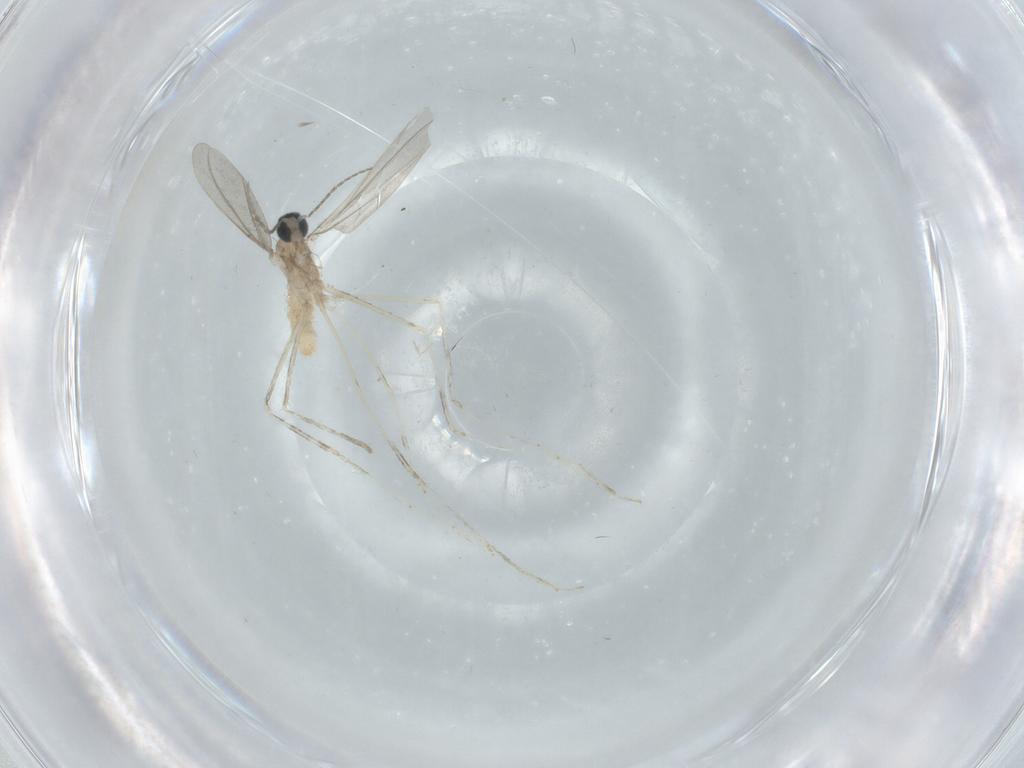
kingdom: Animalia
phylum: Arthropoda
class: Insecta
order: Diptera
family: Cecidomyiidae
